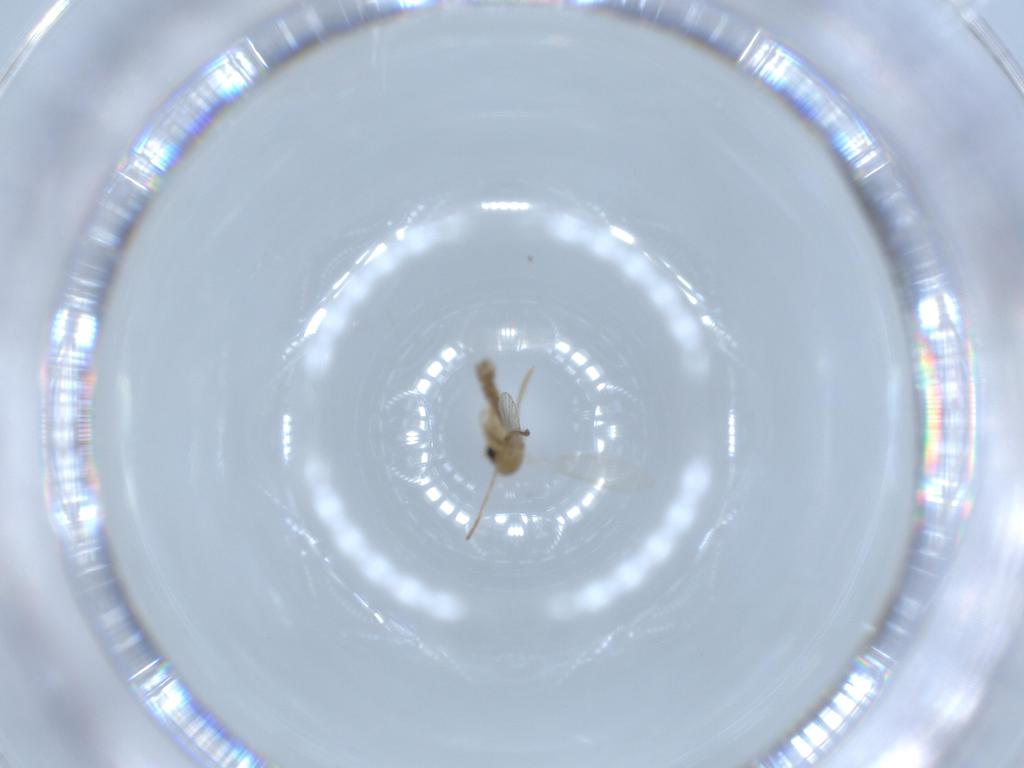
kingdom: Animalia
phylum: Arthropoda
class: Insecta
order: Diptera
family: Psychodidae
